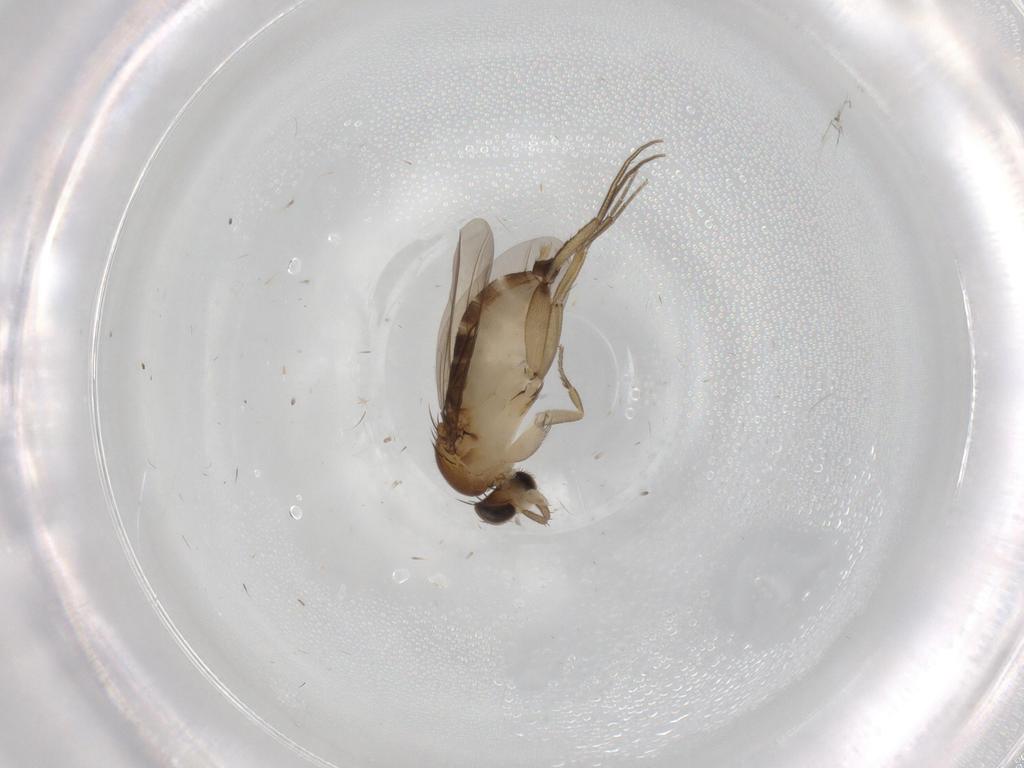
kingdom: Animalia
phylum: Arthropoda
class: Insecta
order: Diptera
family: Phoridae
